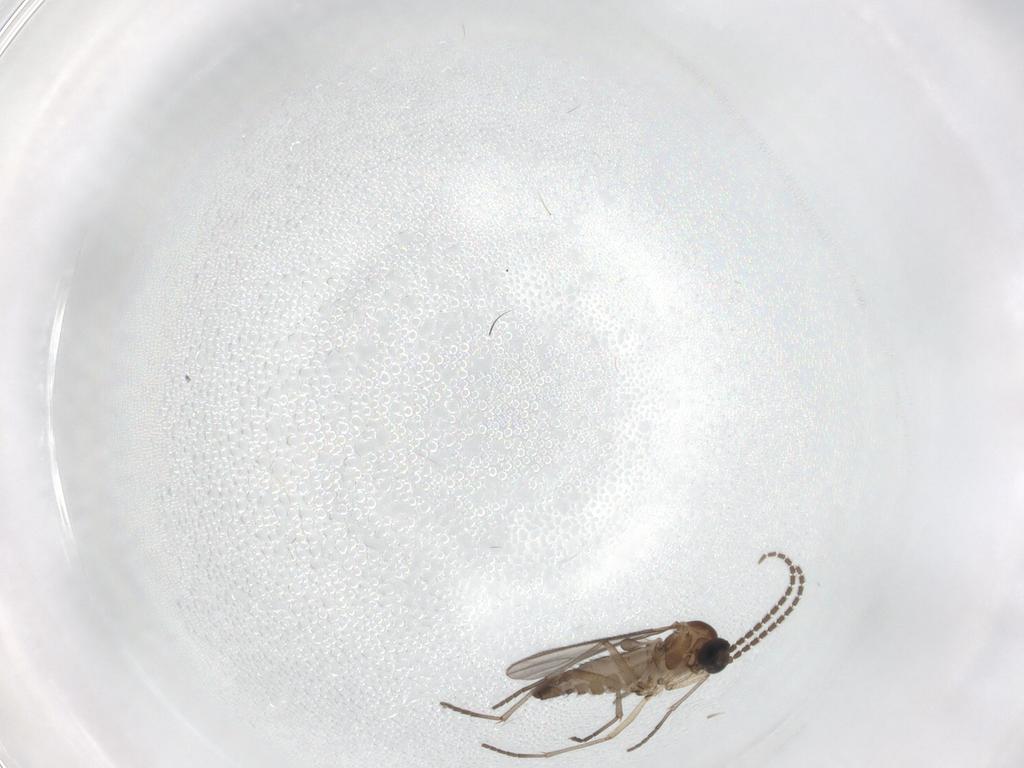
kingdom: Animalia
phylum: Arthropoda
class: Insecta
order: Diptera
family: Sciaridae
